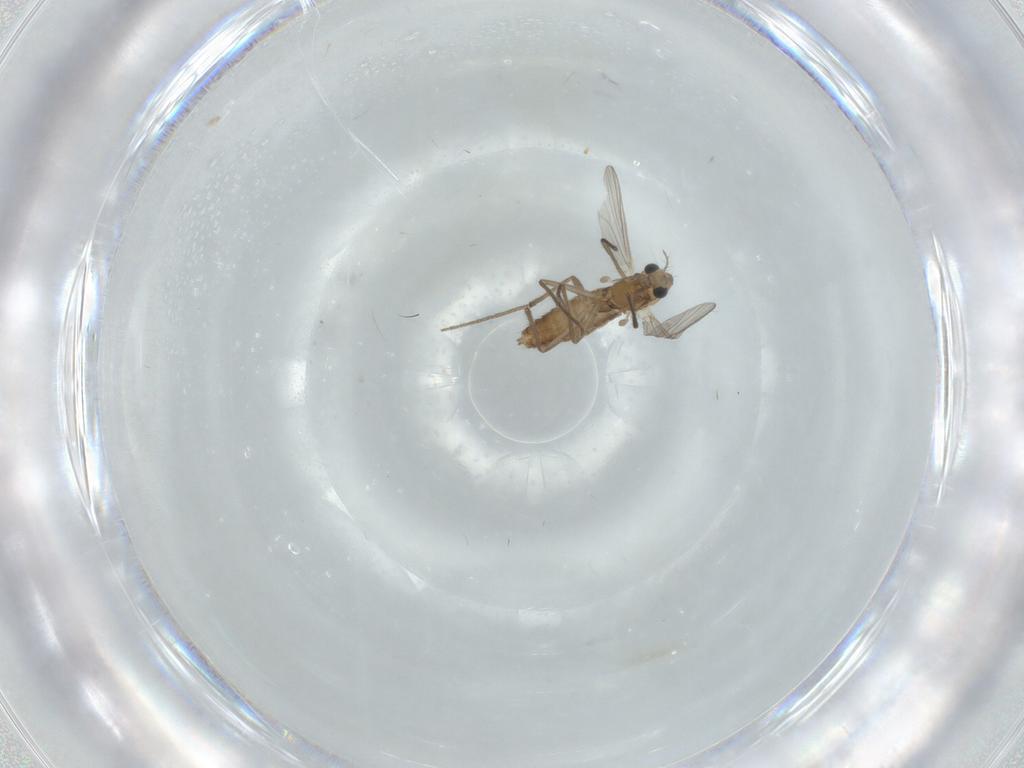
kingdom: Animalia
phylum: Arthropoda
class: Insecta
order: Diptera
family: Chironomidae
